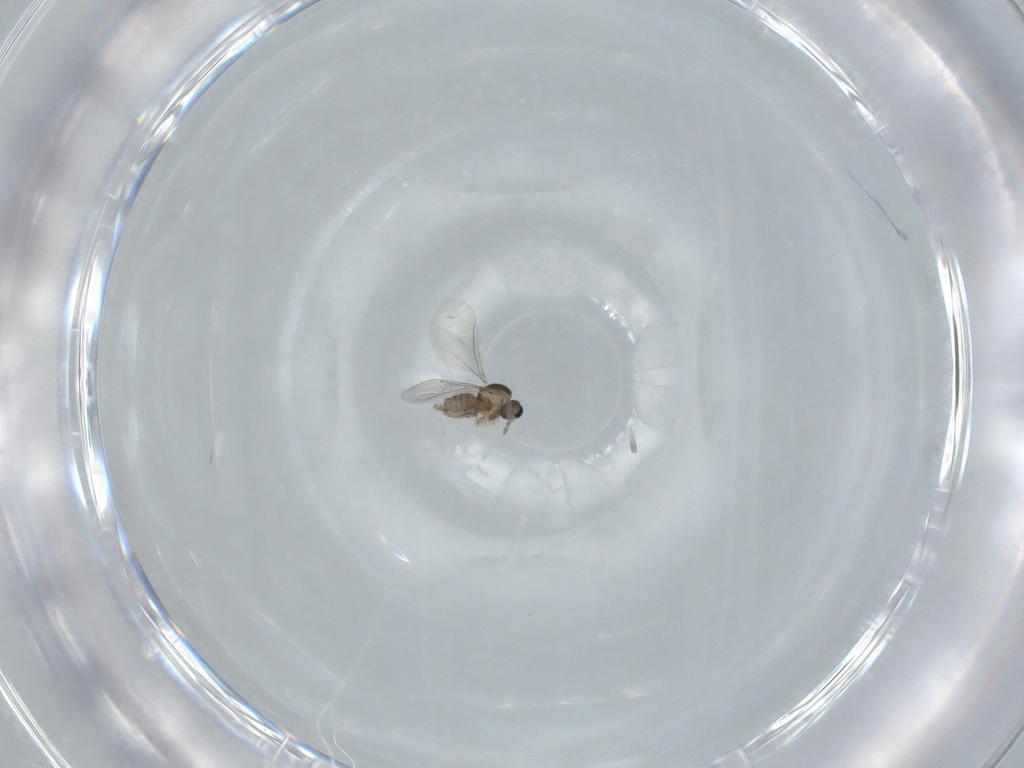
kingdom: Animalia
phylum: Arthropoda
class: Insecta
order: Diptera
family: Cecidomyiidae
